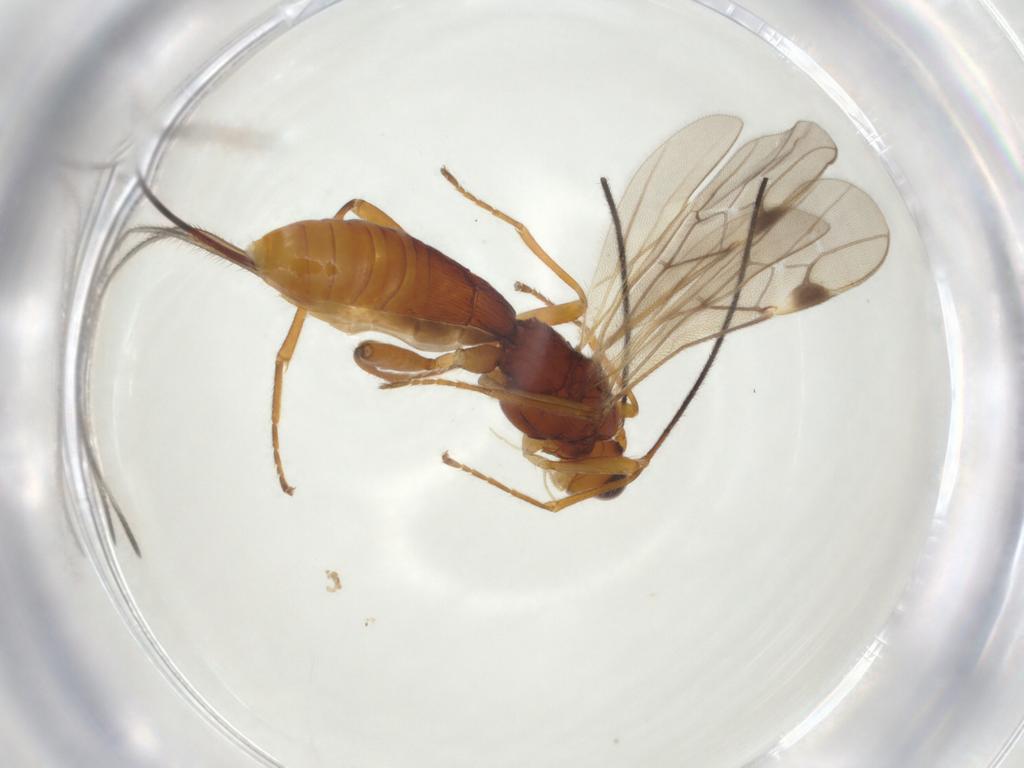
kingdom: Animalia
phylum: Arthropoda
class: Insecta
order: Hymenoptera
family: Braconidae
